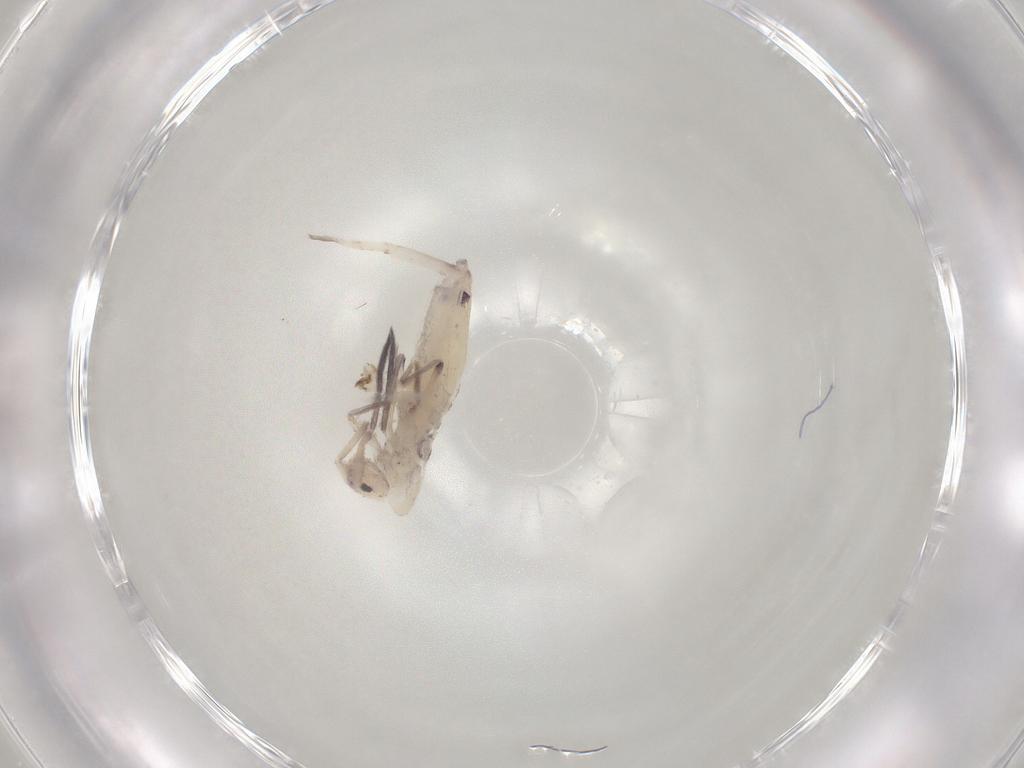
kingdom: Animalia
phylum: Arthropoda
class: Collembola
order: Entomobryomorpha
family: Entomobryidae
